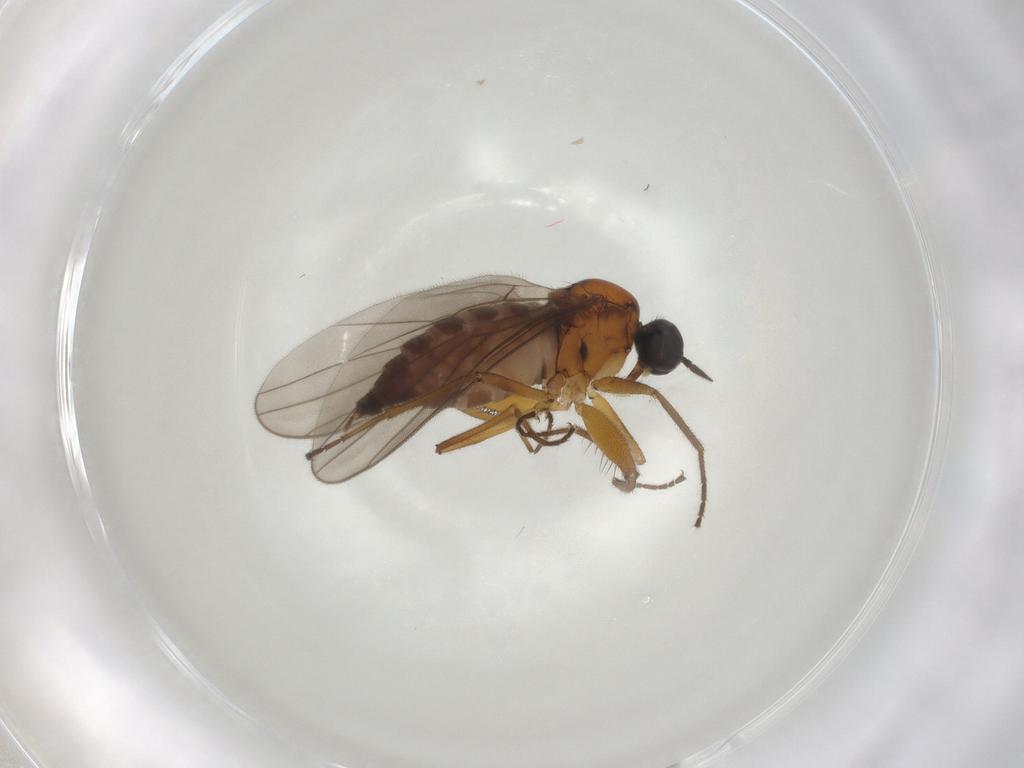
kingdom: Animalia
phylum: Arthropoda
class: Insecta
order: Diptera
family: Hybotidae
